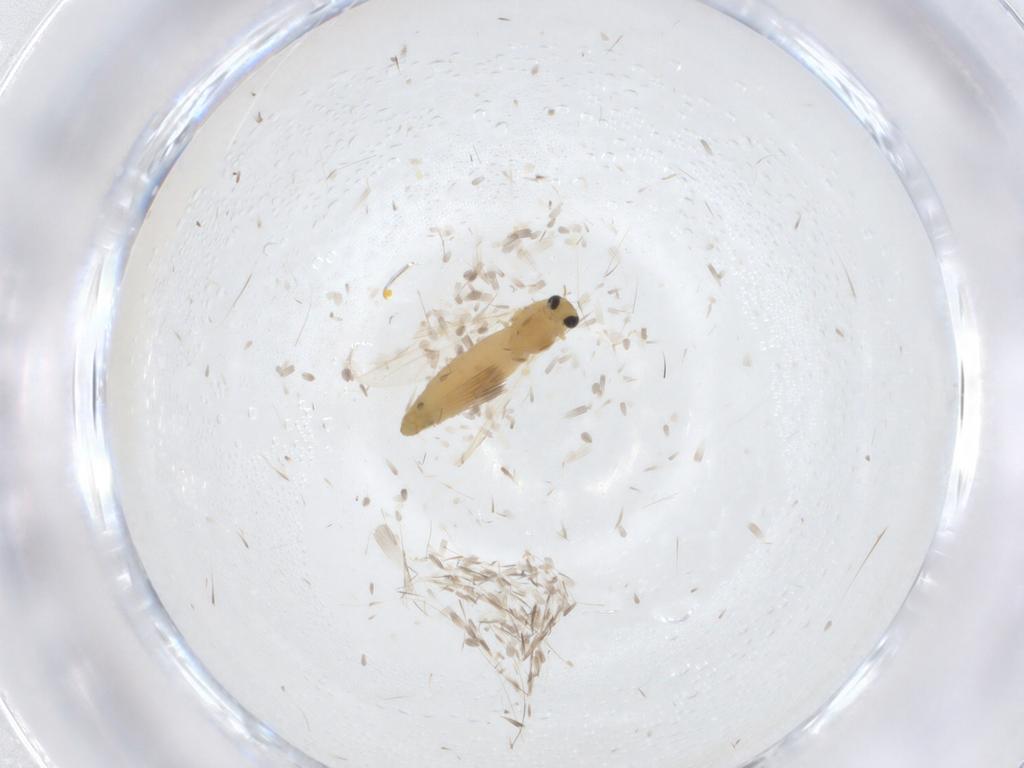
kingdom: Animalia
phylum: Arthropoda
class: Insecta
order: Diptera
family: Chironomidae
